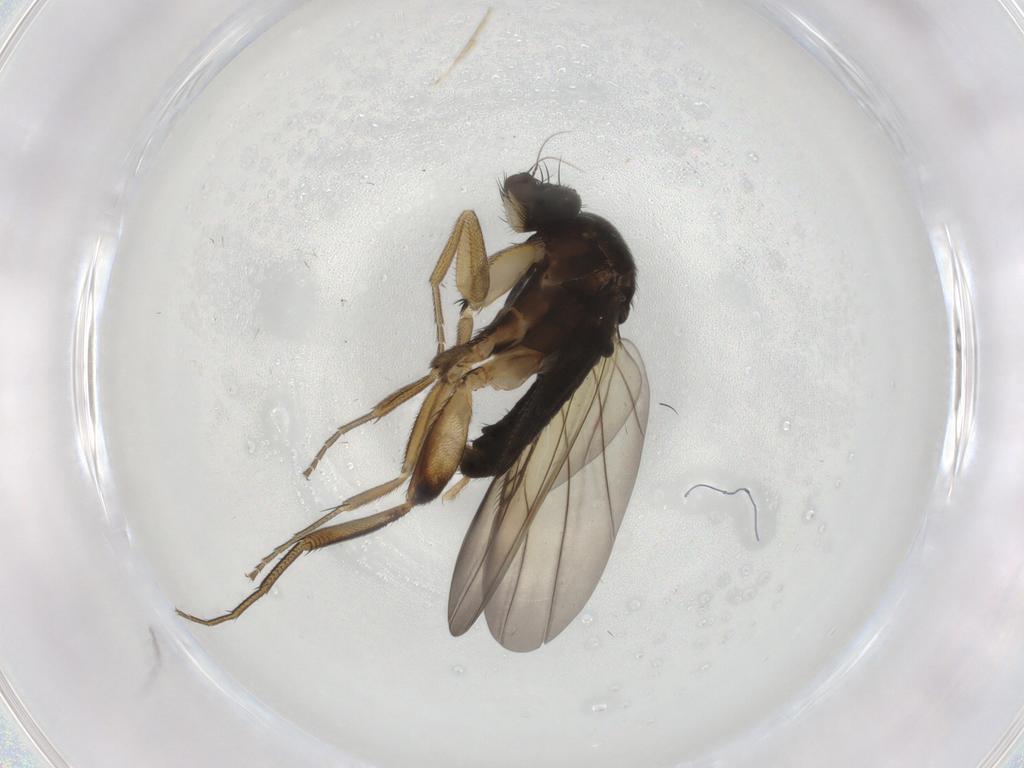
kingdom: Animalia
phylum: Arthropoda
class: Insecta
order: Diptera
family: Phoridae
